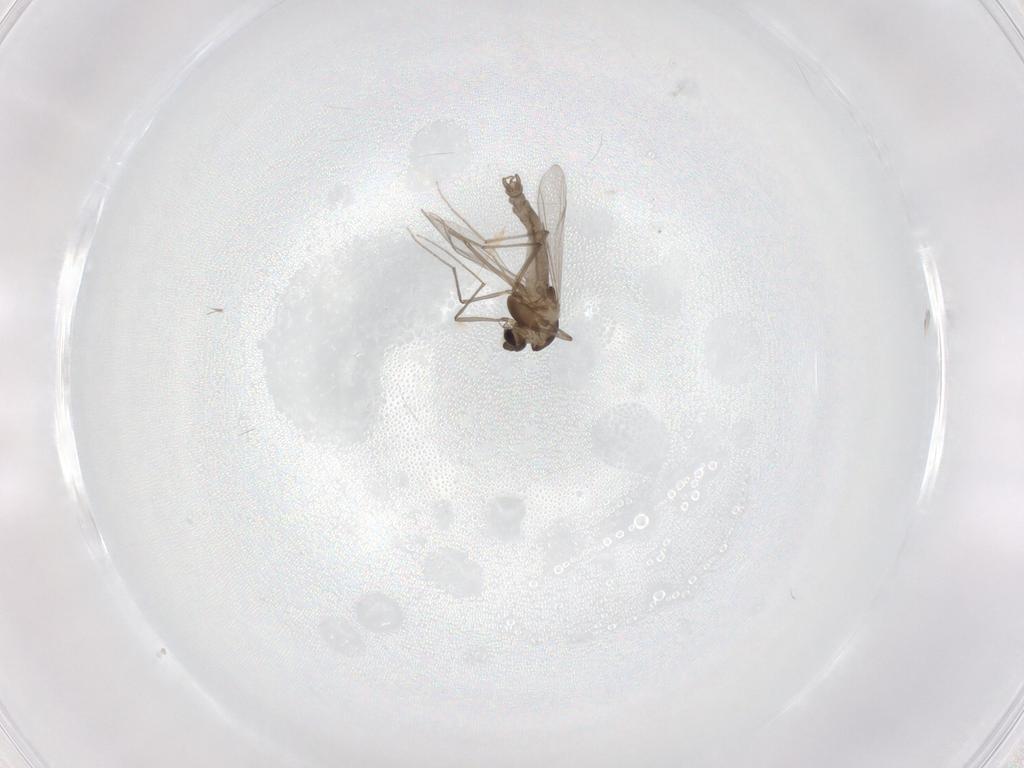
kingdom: Animalia
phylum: Arthropoda
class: Insecta
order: Diptera
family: Chironomidae
